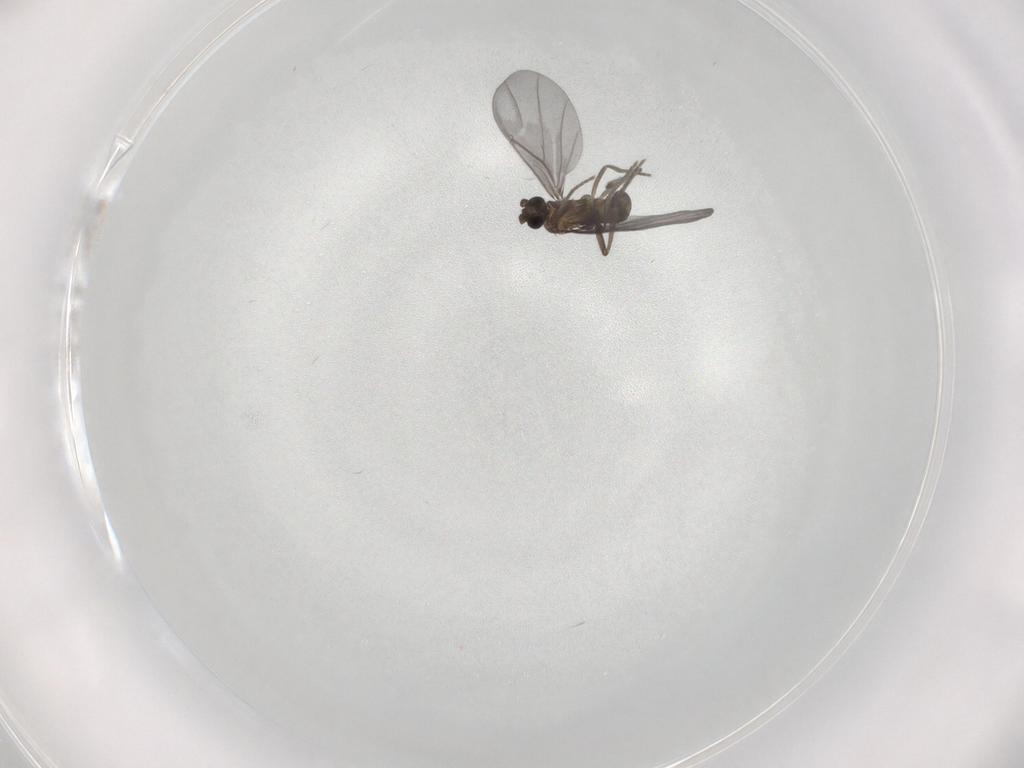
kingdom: Animalia
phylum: Arthropoda
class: Insecta
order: Diptera
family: Phoridae
